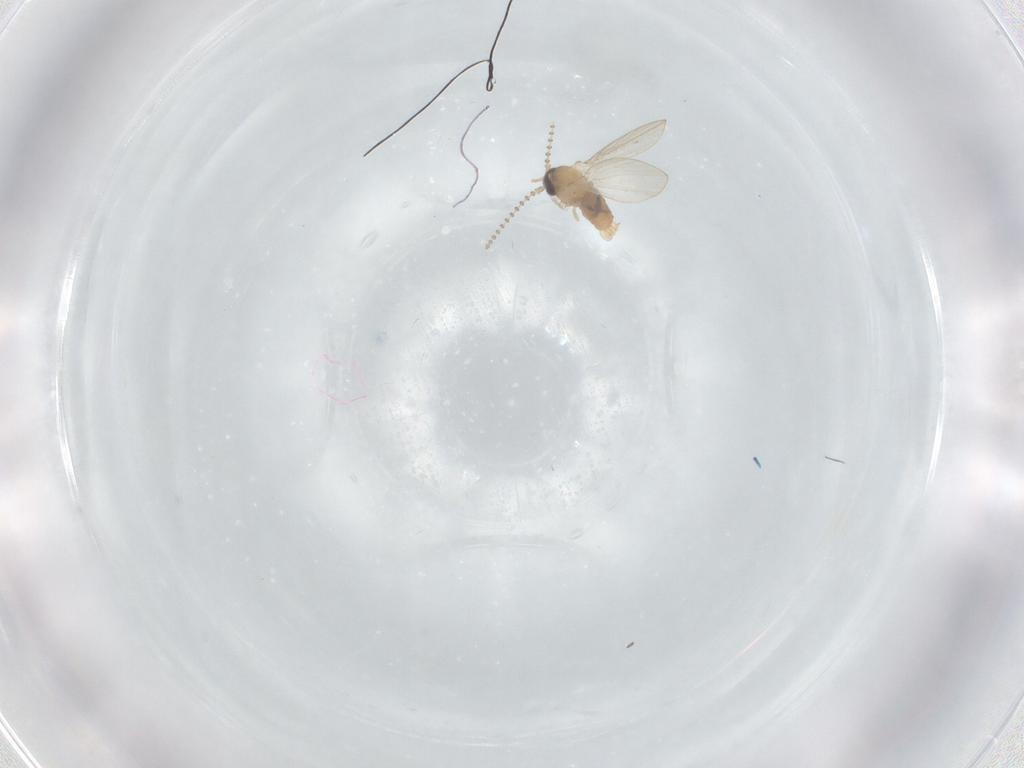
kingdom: Animalia
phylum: Arthropoda
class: Insecta
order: Diptera
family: Psychodidae
